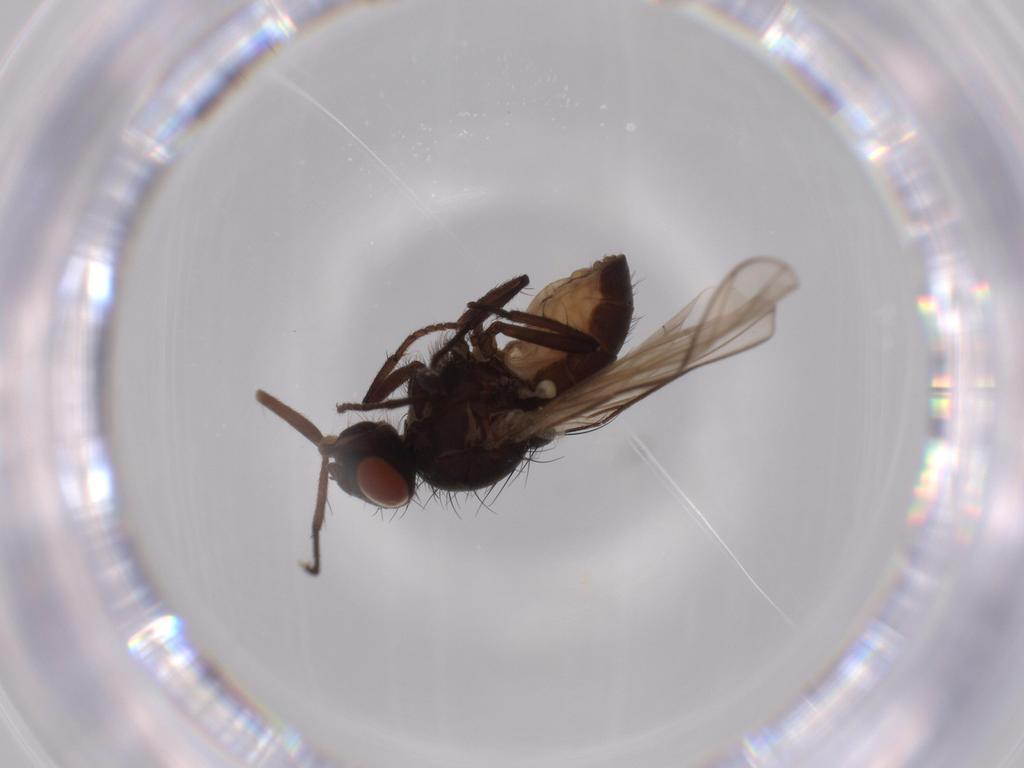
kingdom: Animalia
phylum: Arthropoda
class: Insecta
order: Diptera
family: Anthomyiidae
